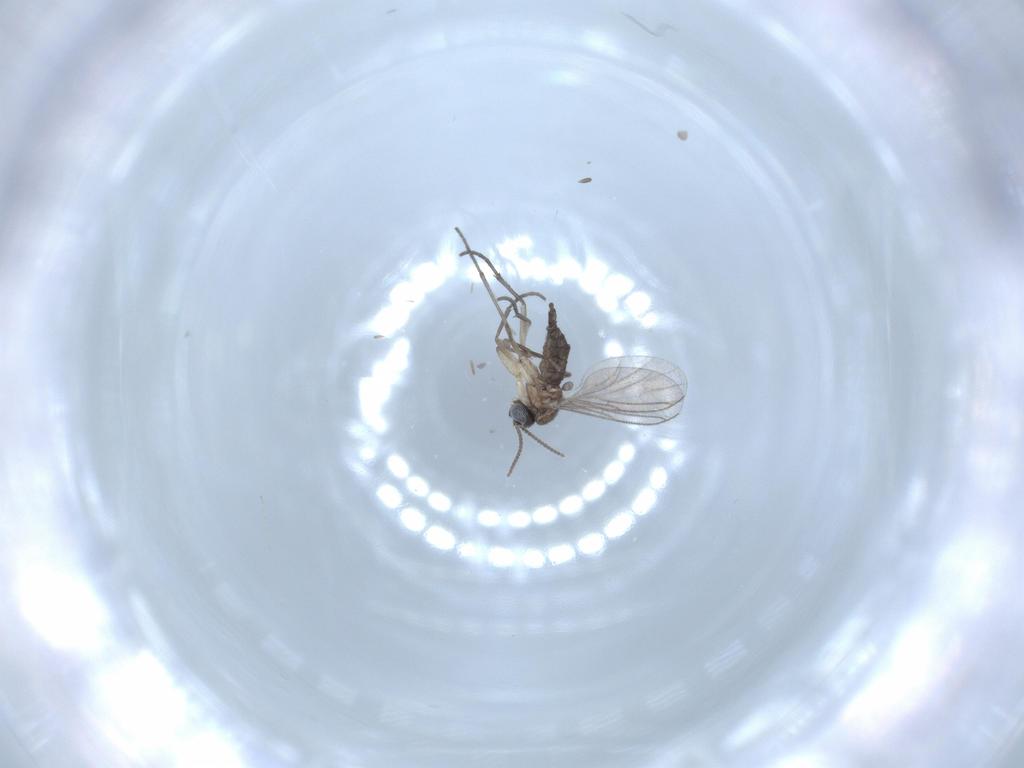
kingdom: Animalia
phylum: Arthropoda
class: Insecta
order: Diptera
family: Sciaridae
